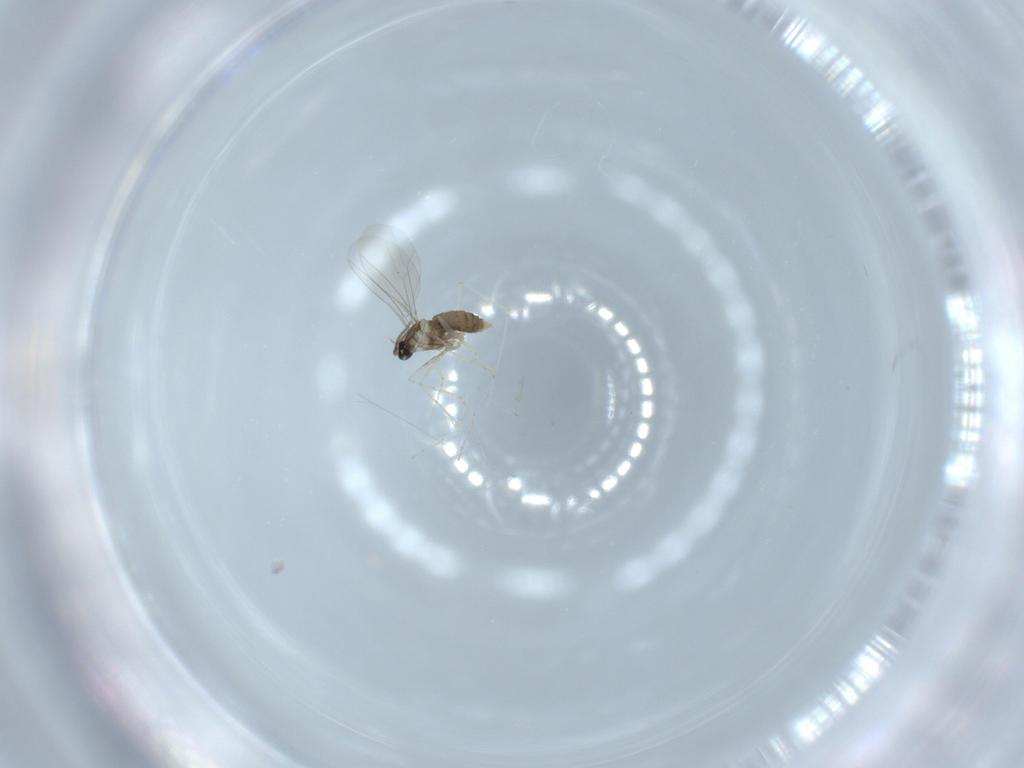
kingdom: Animalia
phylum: Arthropoda
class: Insecta
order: Diptera
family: Cecidomyiidae
